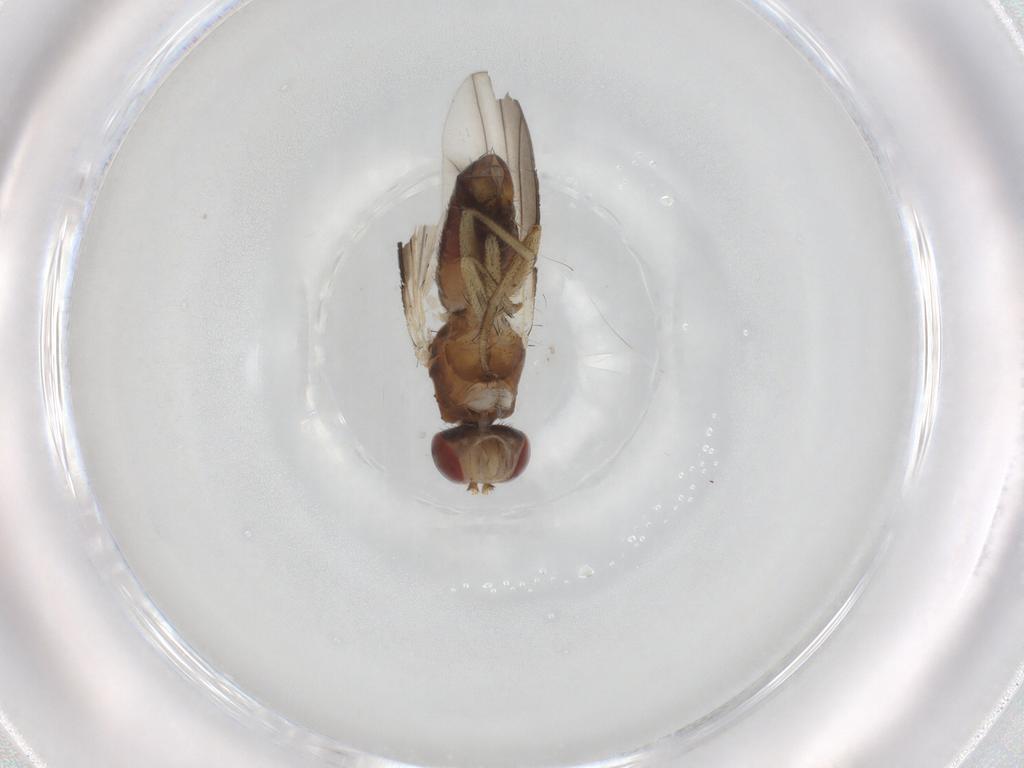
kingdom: Animalia
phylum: Arthropoda
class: Insecta
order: Diptera
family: Heleomyzidae
